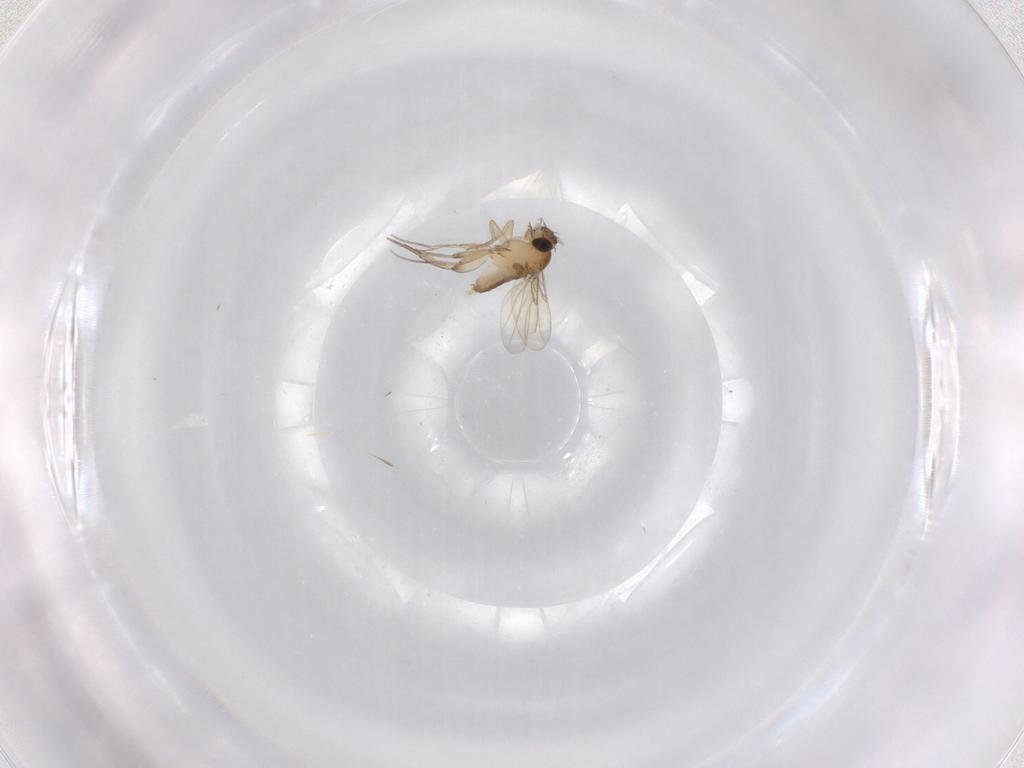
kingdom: Animalia
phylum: Arthropoda
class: Insecta
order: Diptera
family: Phoridae
